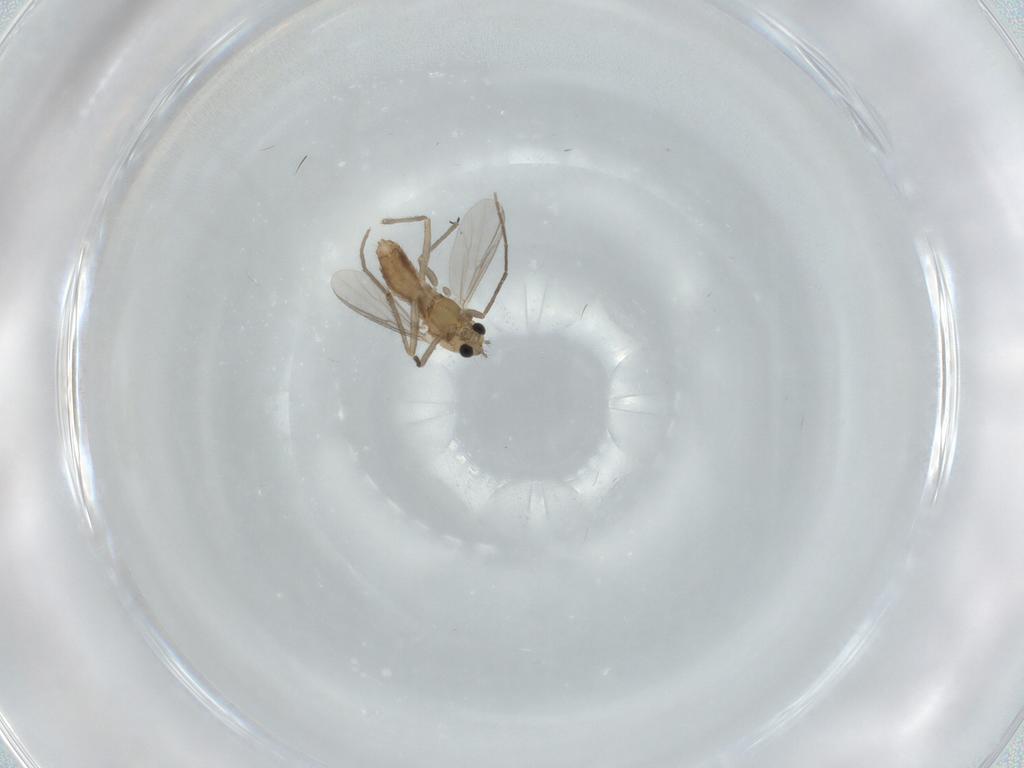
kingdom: Animalia
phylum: Arthropoda
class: Insecta
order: Diptera
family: Chironomidae
